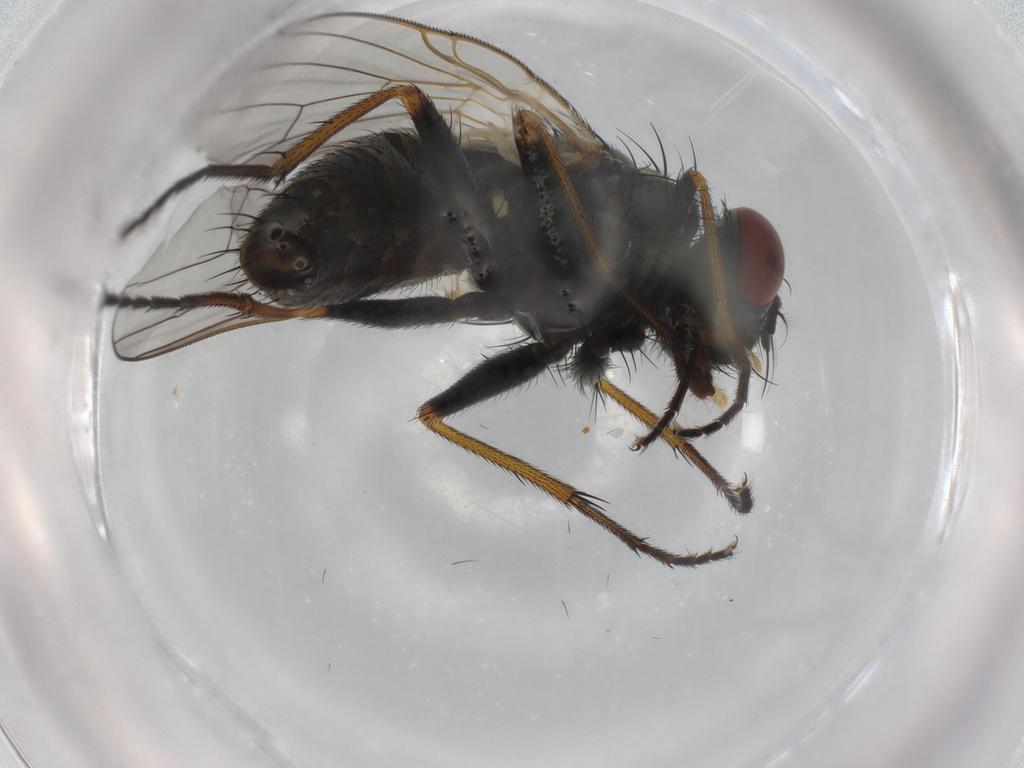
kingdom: Animalia
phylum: Arthropoda
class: Insecta
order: Diptera
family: Muscidae
